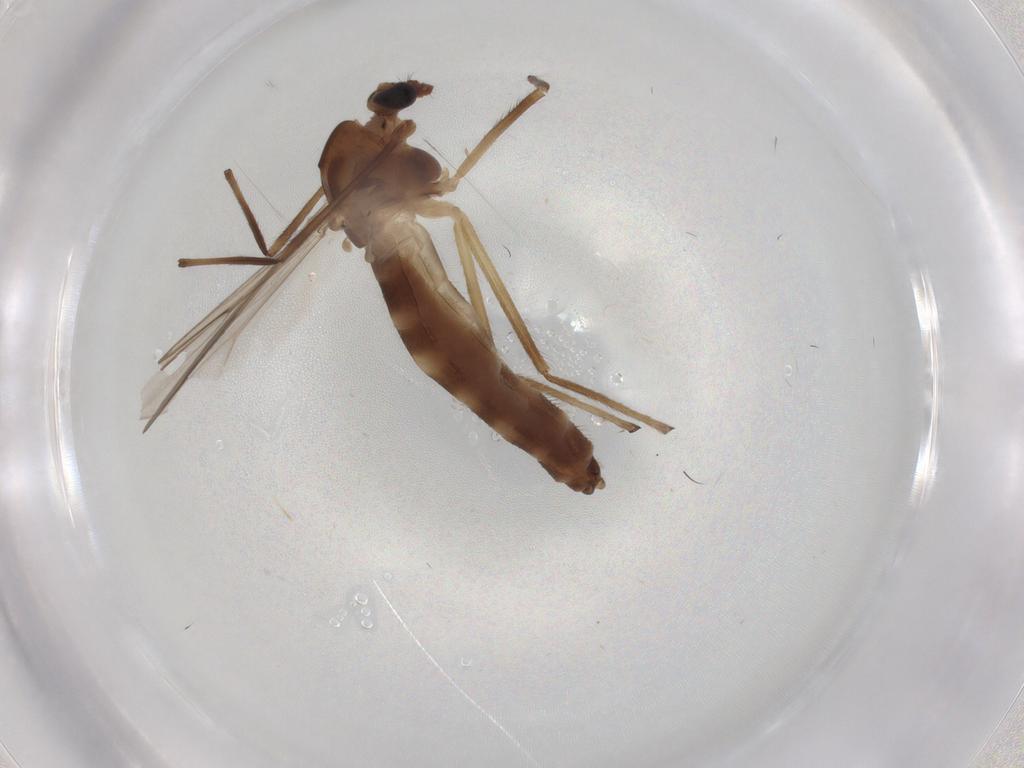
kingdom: Animalia
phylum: Arthropoda
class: Insecta
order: Diptera
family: Chironomidae
